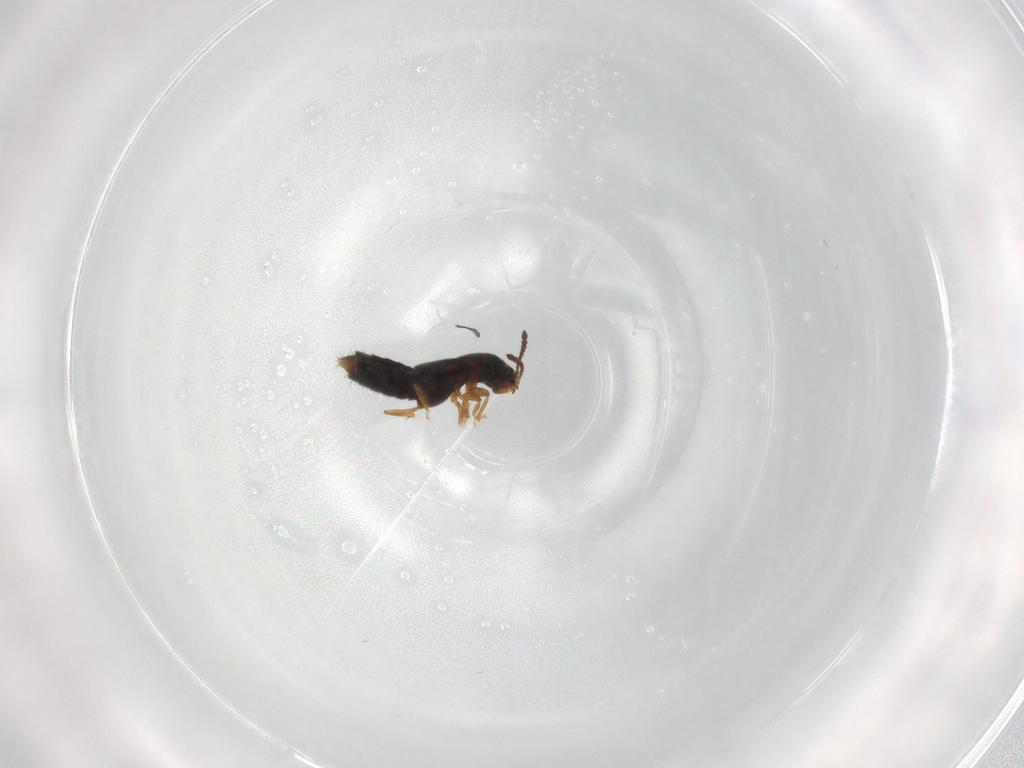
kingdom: Animalia
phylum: Arthropoda
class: Insecta
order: Coleoptera
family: Staphylinidae
